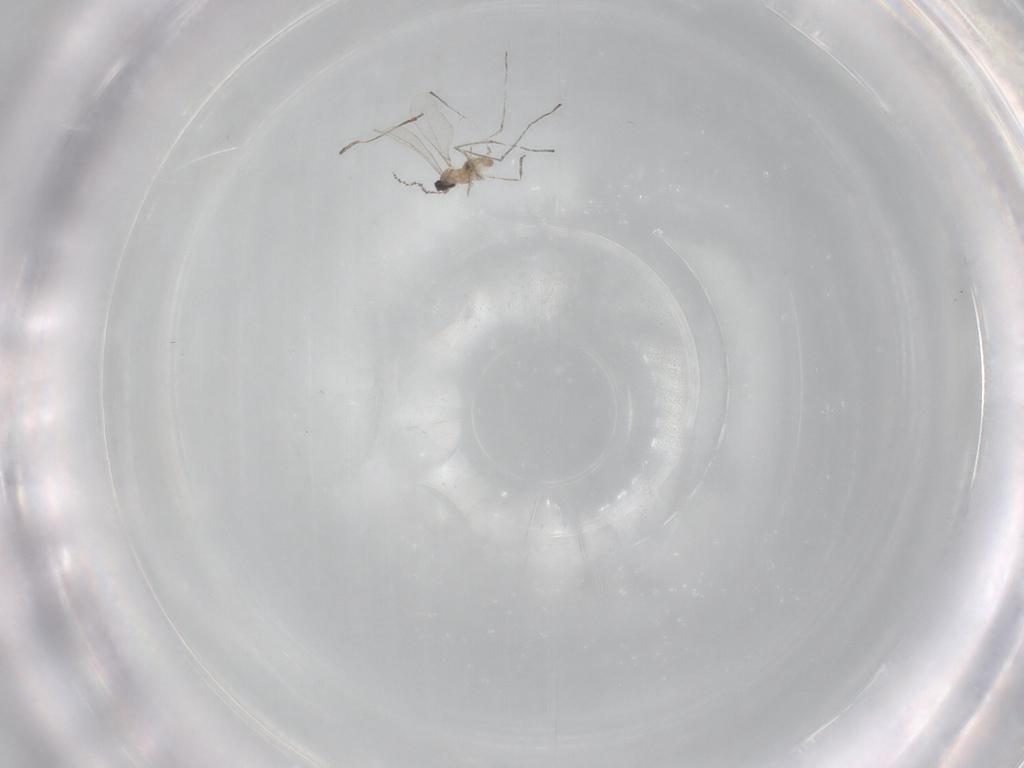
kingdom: Animalia
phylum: Arthropoda
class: Insecta
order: Diptera
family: Cecidomyiidae
